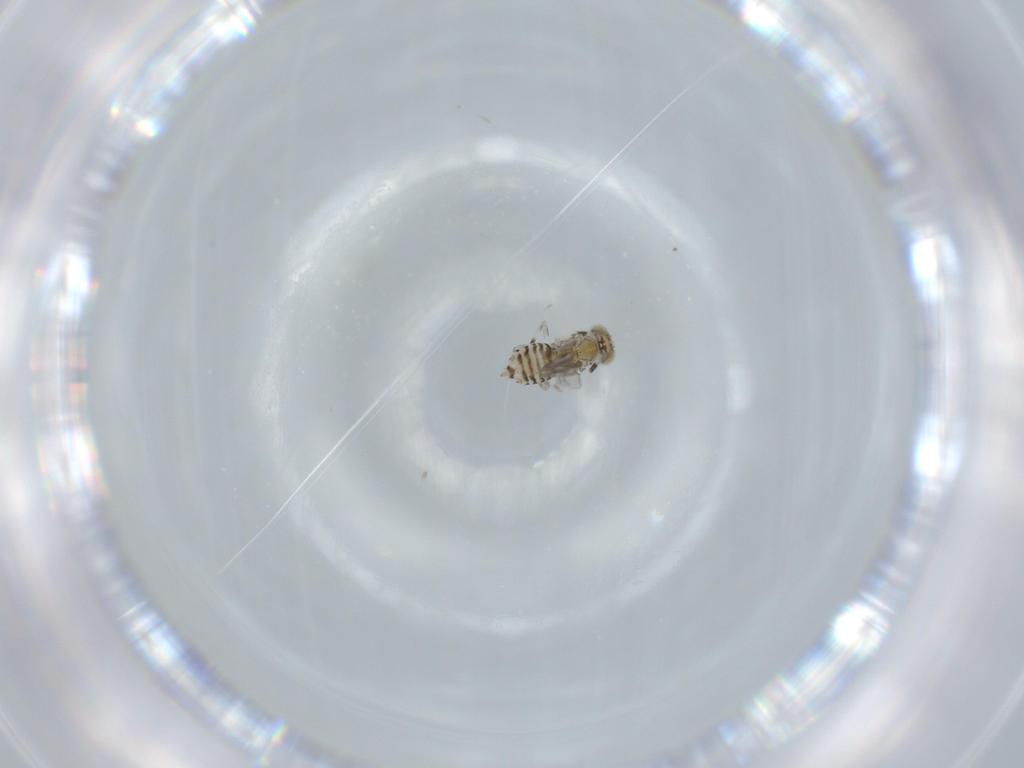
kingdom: Animalia
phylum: Arthropoda
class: Insecta
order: Hymenoptera
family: Aphelinidae
